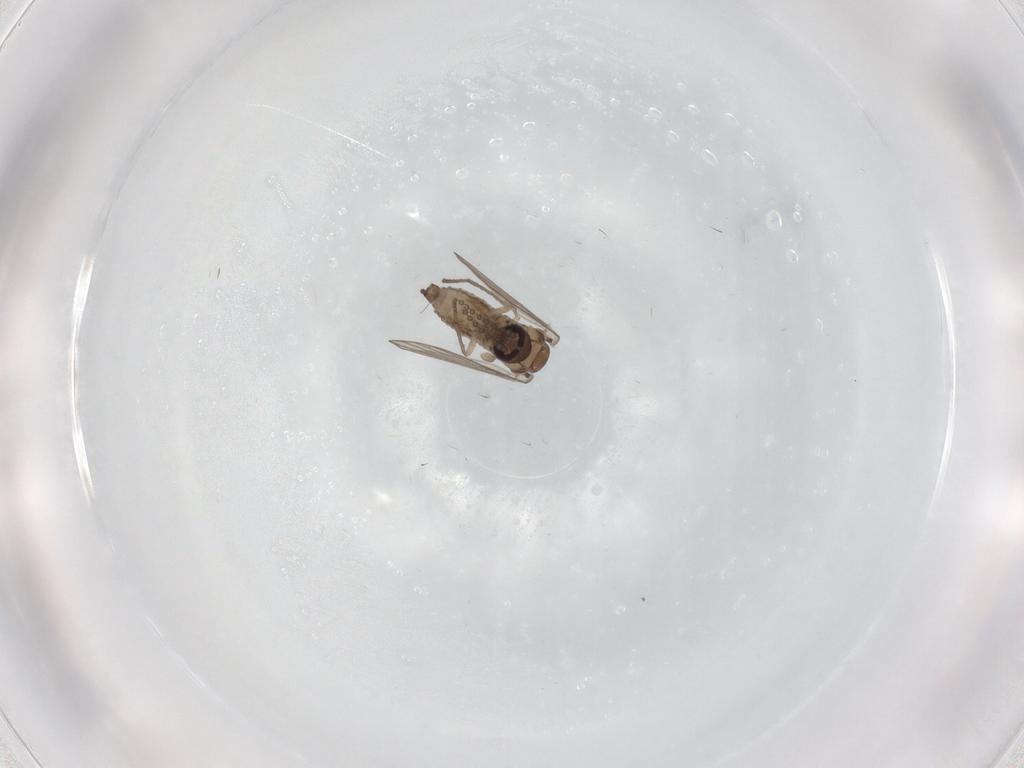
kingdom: Animalia
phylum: Arthropoda
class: Insecta
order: Diptera
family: Psychodidae
